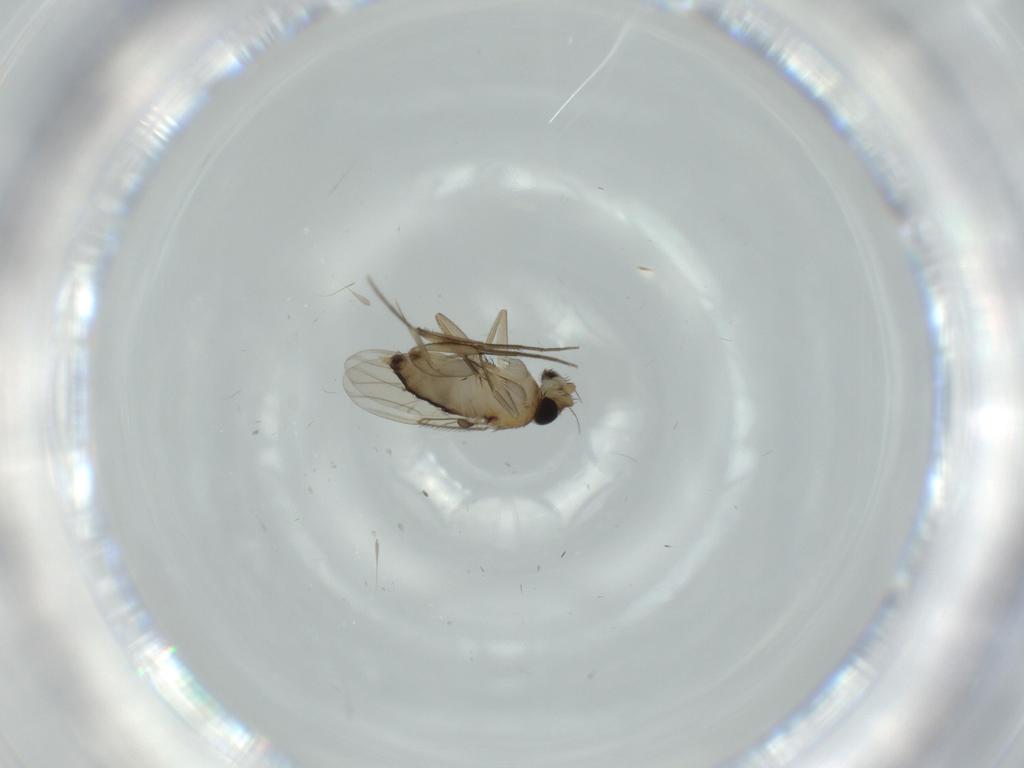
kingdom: Animalia
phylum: Arthropoda
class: Insecta
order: Diptera
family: Phoridae
